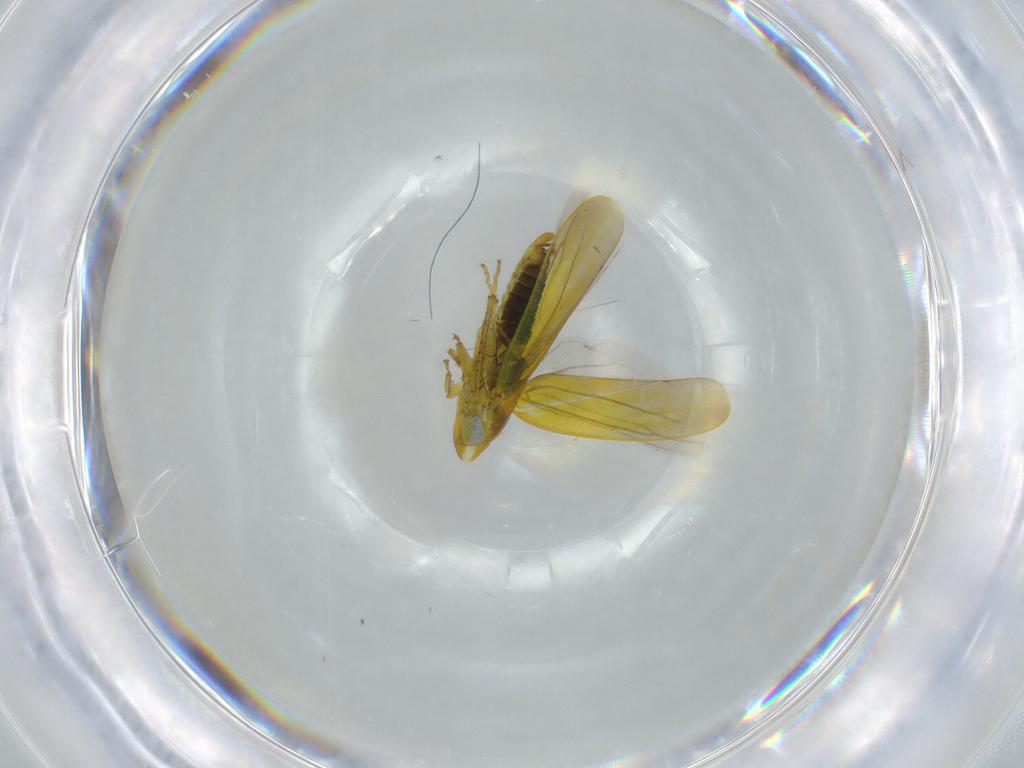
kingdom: Animalia
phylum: Arthropoda
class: Insecta
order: Hemiptera
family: Cicadellidae
